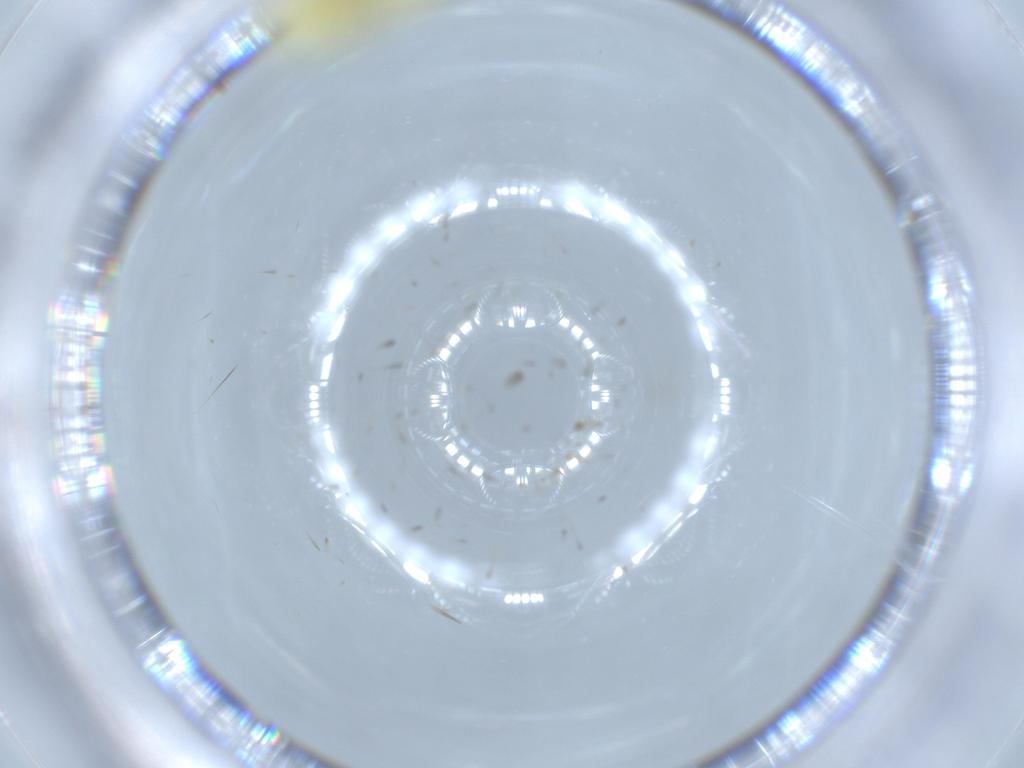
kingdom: Animalia
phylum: Arthropoda
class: Insecta
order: Hemiptera
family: Cicadellidae
